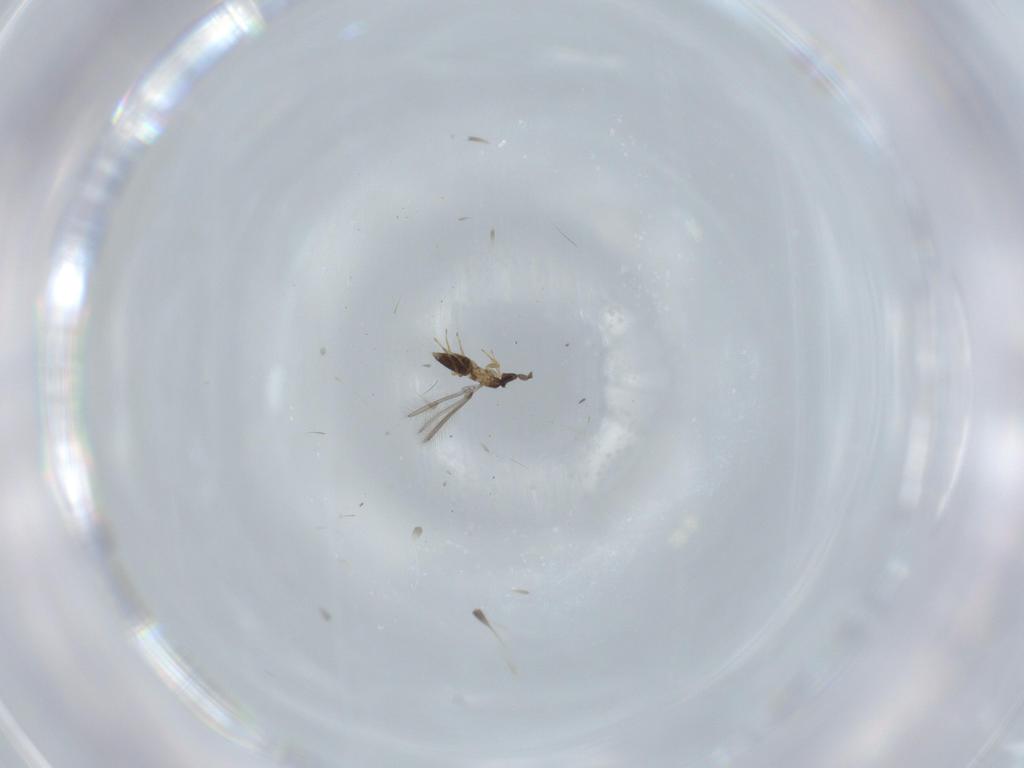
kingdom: Animalia
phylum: Arthropoda
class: Insecta
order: Hymenoptera
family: Mymaridae
